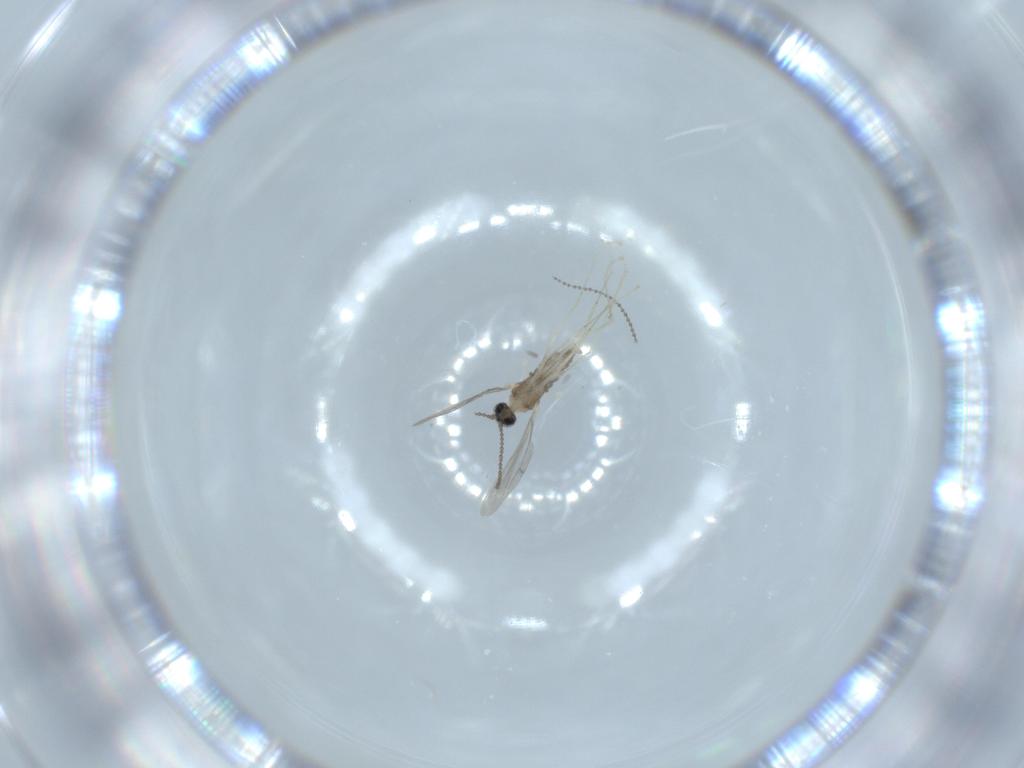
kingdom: Animalia
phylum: Arthropoda
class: Insecta
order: Diptera
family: Cecidomyiidae
